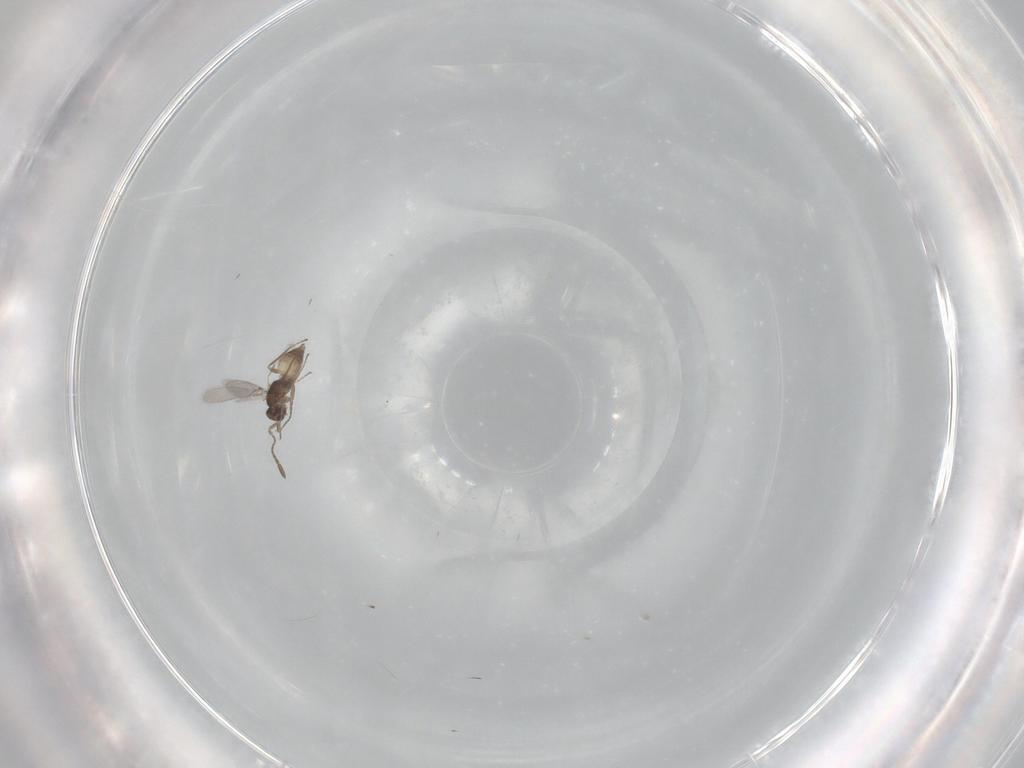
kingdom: Animalia
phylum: Arthropoda
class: Insecta
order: Hymenoptera
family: Mymaridae
